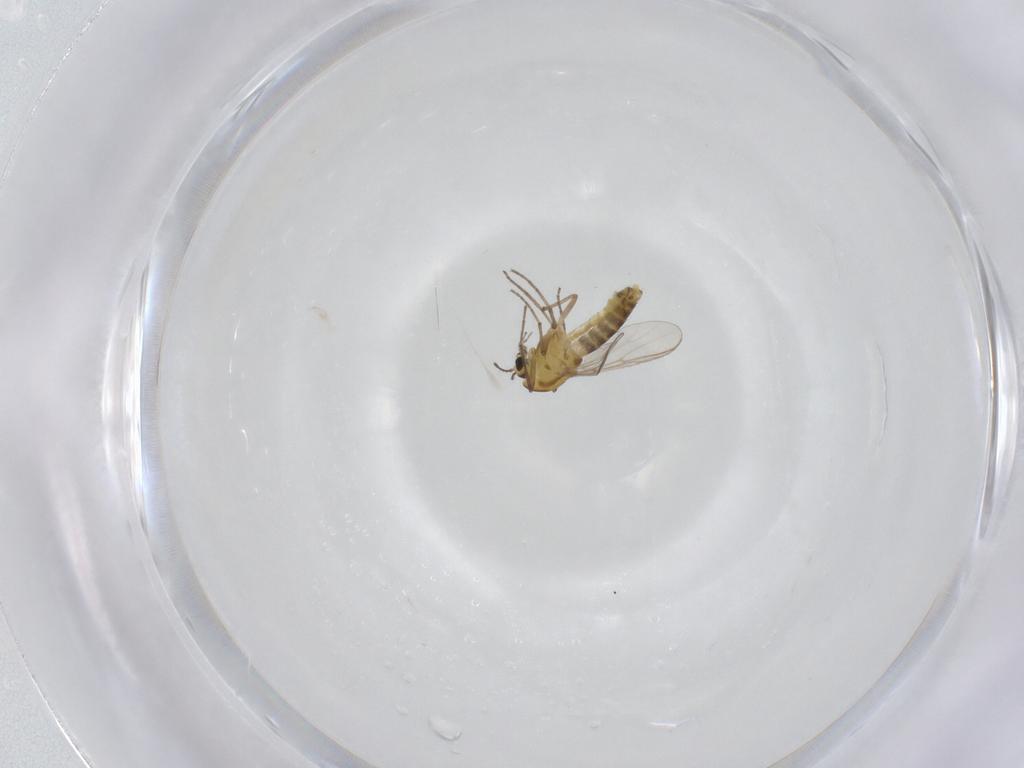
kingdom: Animalia
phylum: Arthropoda
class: Insecta
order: Diptera
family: Chironomidae
